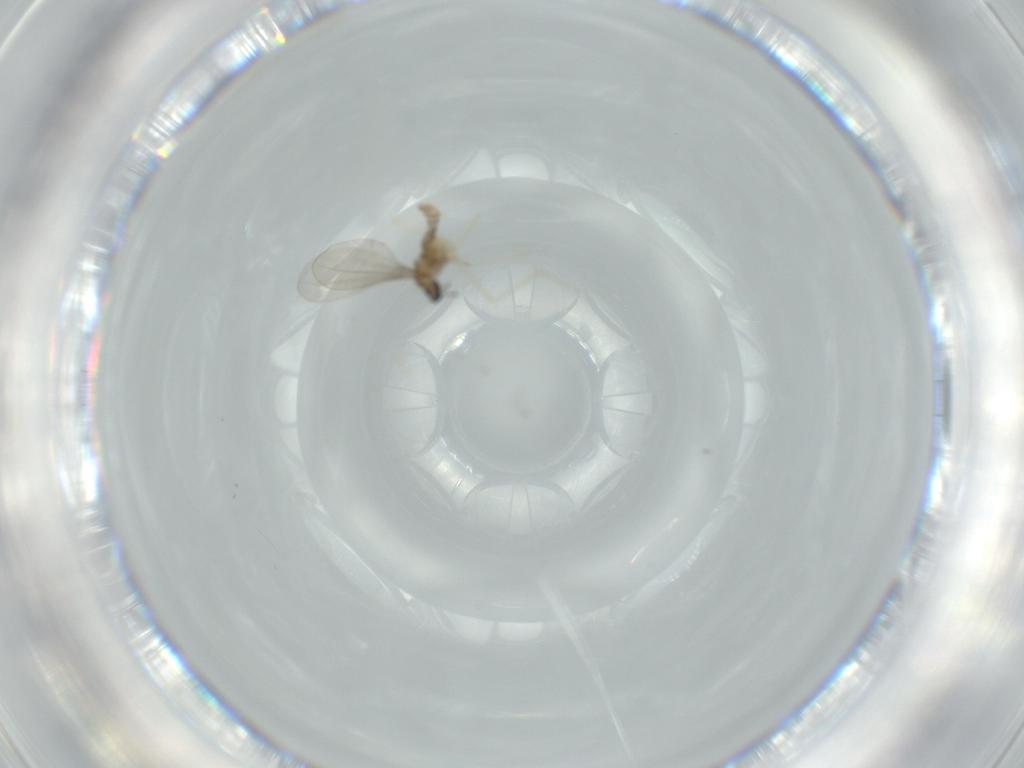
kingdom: Animalia
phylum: Arthropoda
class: Insecta
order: Diptera
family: Cecidomyiidae
